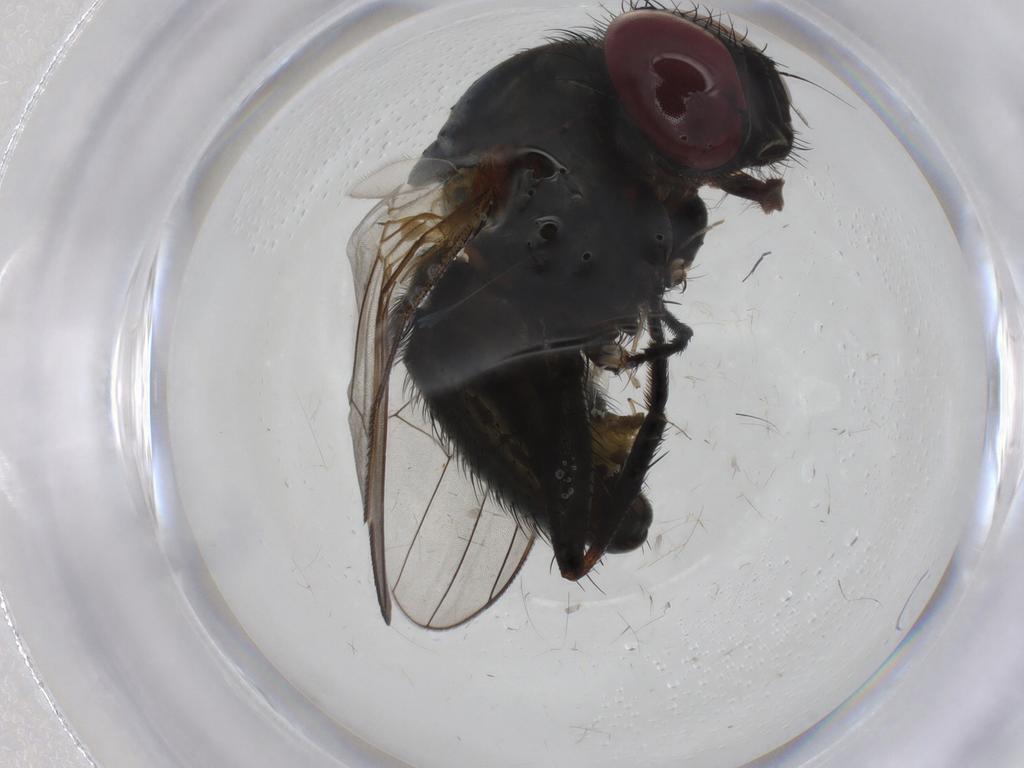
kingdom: Animalia
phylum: Arthropoda
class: Insecta
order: Diptera
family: Fannia
